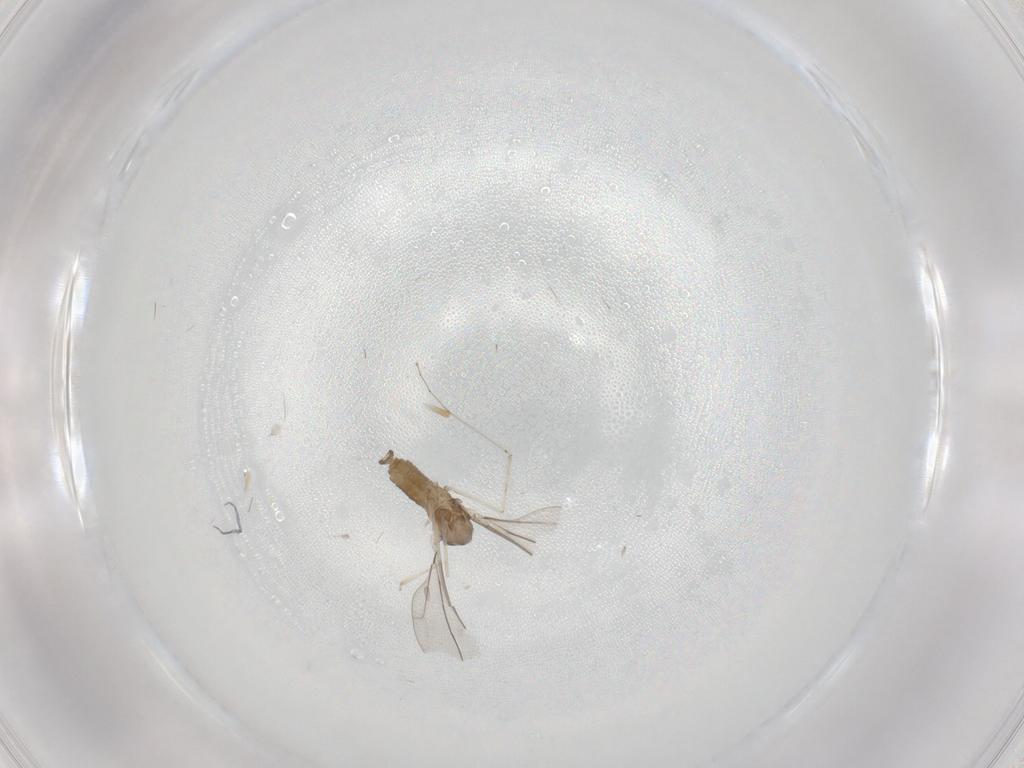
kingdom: Animalia
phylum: Arthropoda
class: Insecta
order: Diptera
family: Cecidomyiidae
